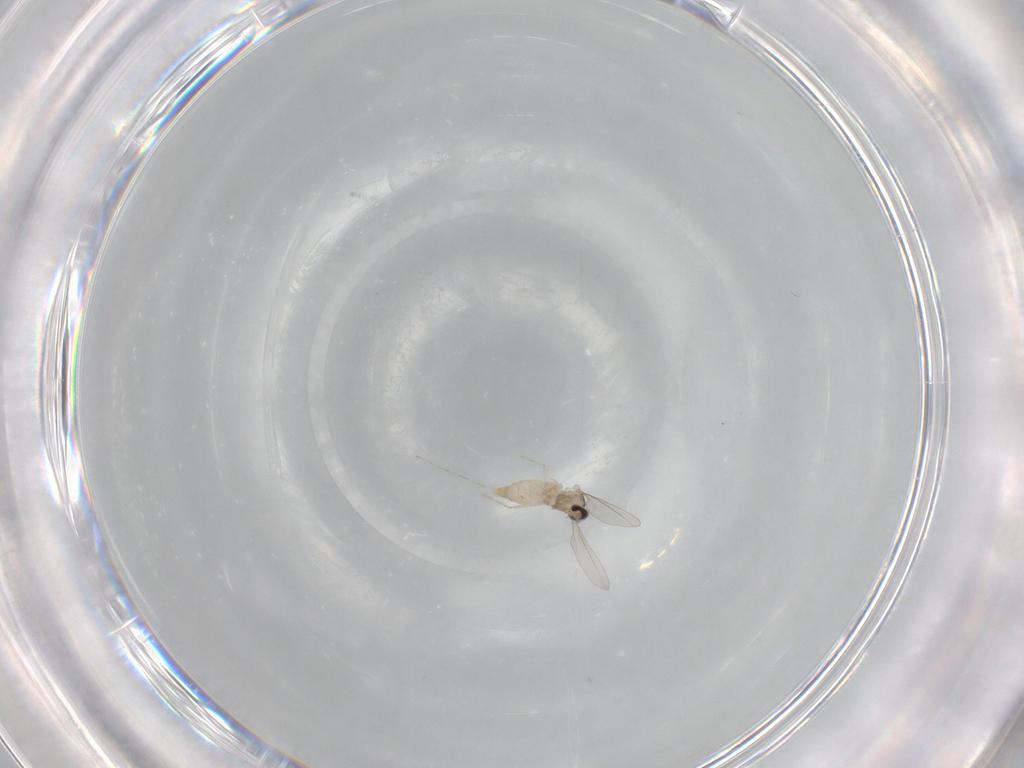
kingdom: Animalia
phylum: Arthropoda
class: Insecta
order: Diptera
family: Cecidomyiidae
